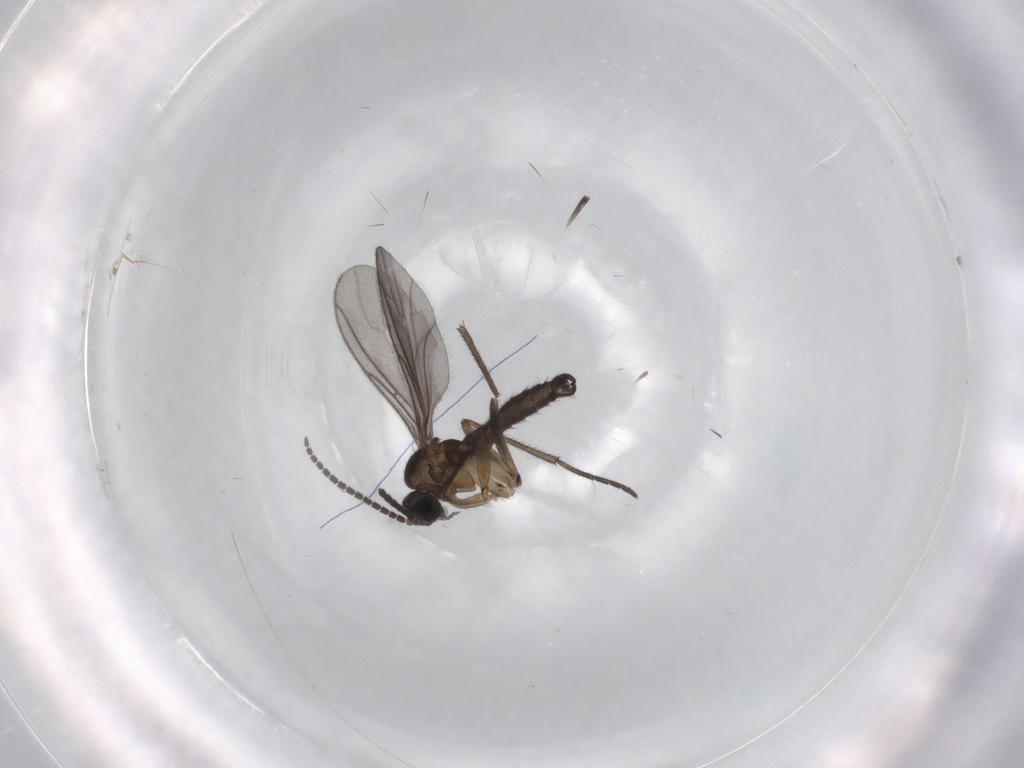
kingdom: Animalia
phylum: Arthropoda
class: Insecta
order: Diptera
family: Sciaridae
